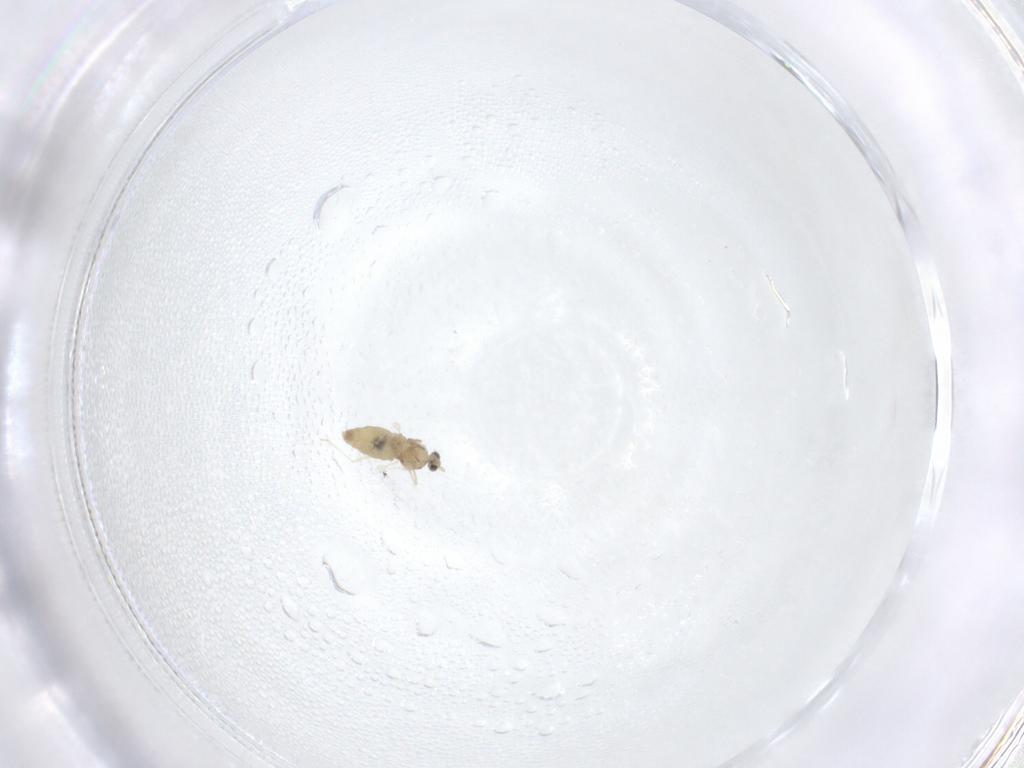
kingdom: Animalia
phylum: Arthropoda
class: Insecta
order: Diptera
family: Cecidomyiidae
